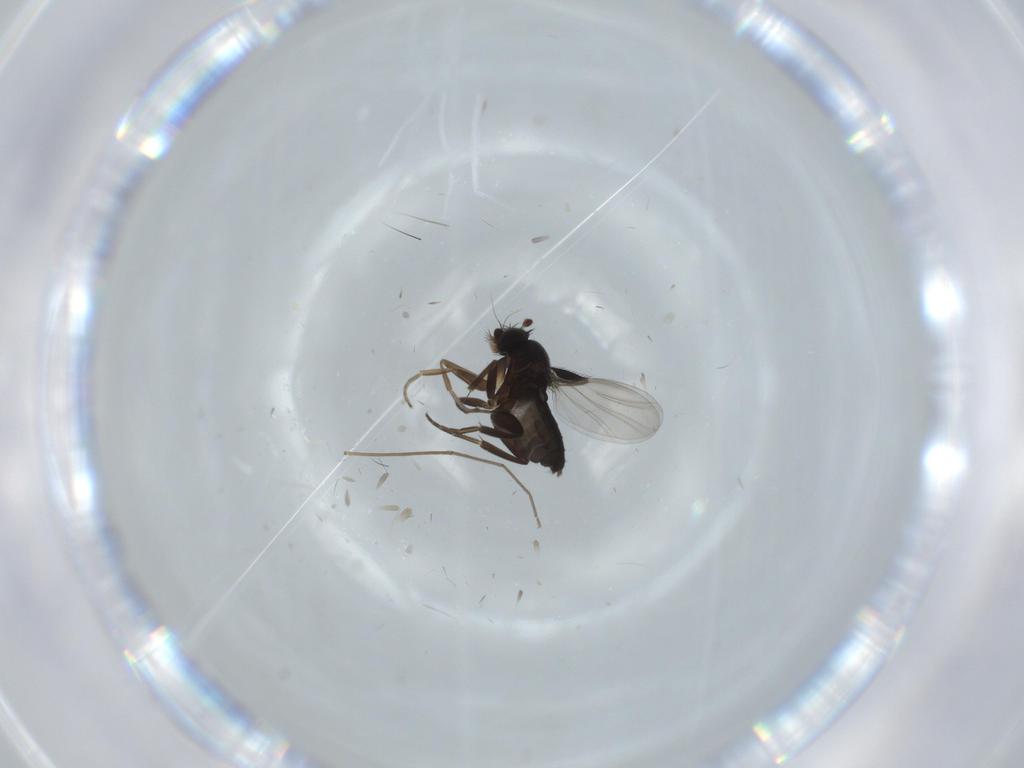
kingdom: Animalia
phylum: Arthropoda
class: Insecta
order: Diptera
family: Phoridae
